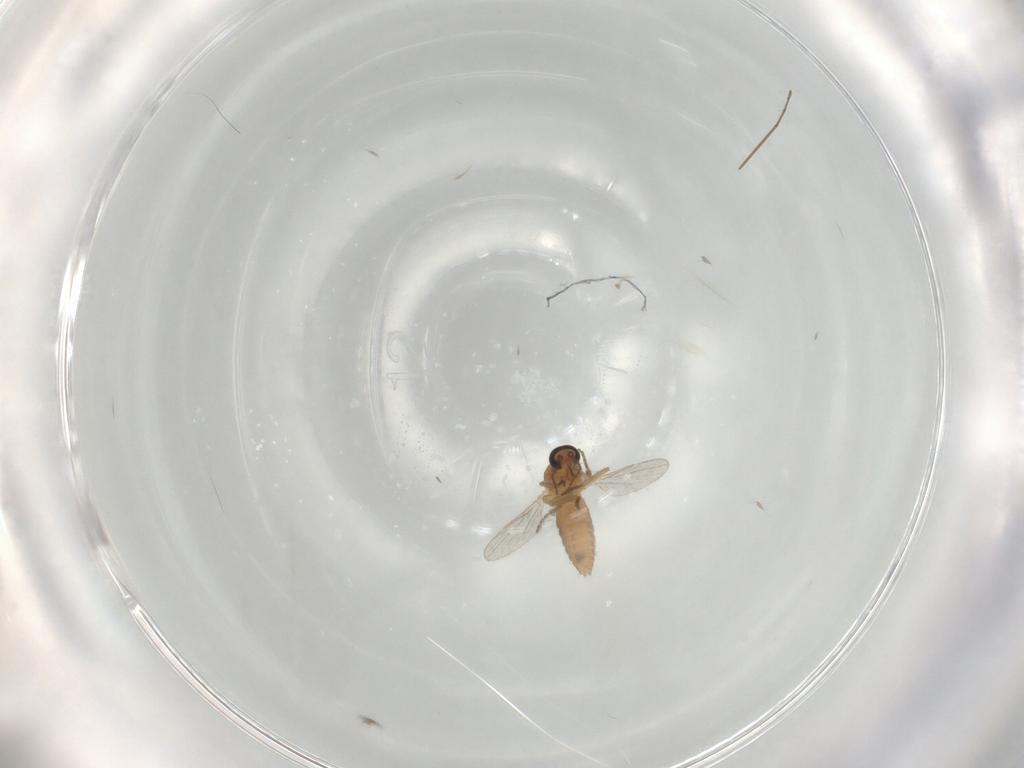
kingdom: Animalia
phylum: Arthropoda
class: Insecta
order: Diptera
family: Ceratopogonidae
